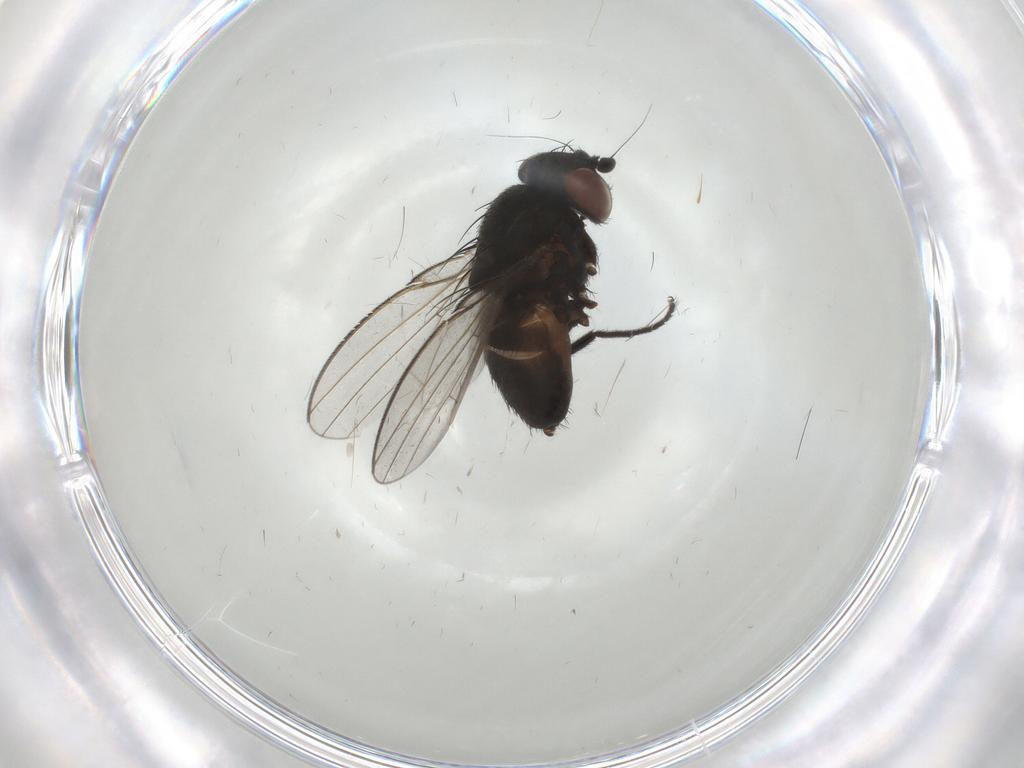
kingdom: Animalia
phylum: Arthropoda
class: Insecta
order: Diptera
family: Milichiidae
